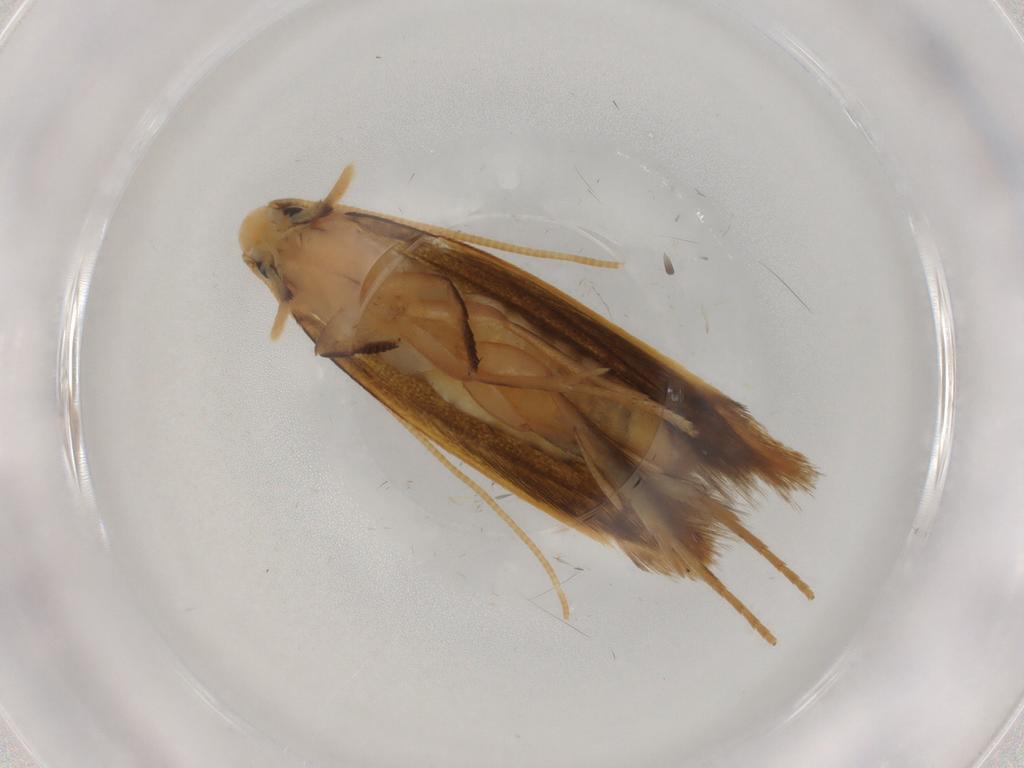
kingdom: Animalia
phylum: Arthropoda
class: Insecta
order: Lepidoptera
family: Tineidae
